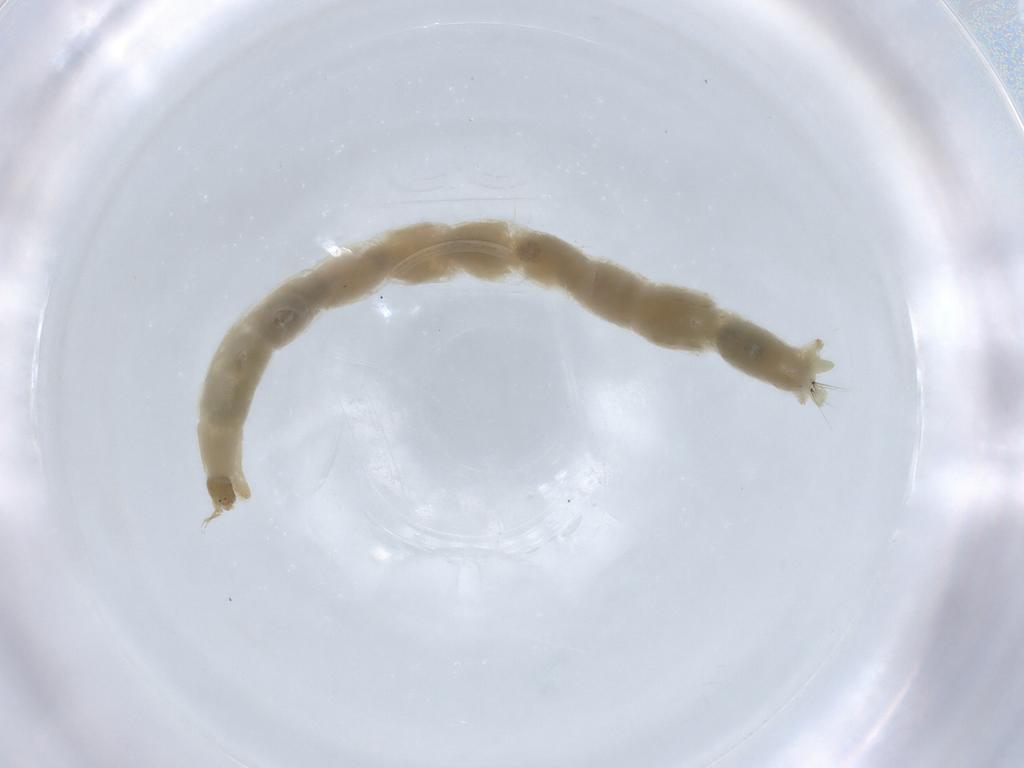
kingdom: Animalia
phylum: Arthropoda
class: Insecta
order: Diptera
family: Chironomidae
